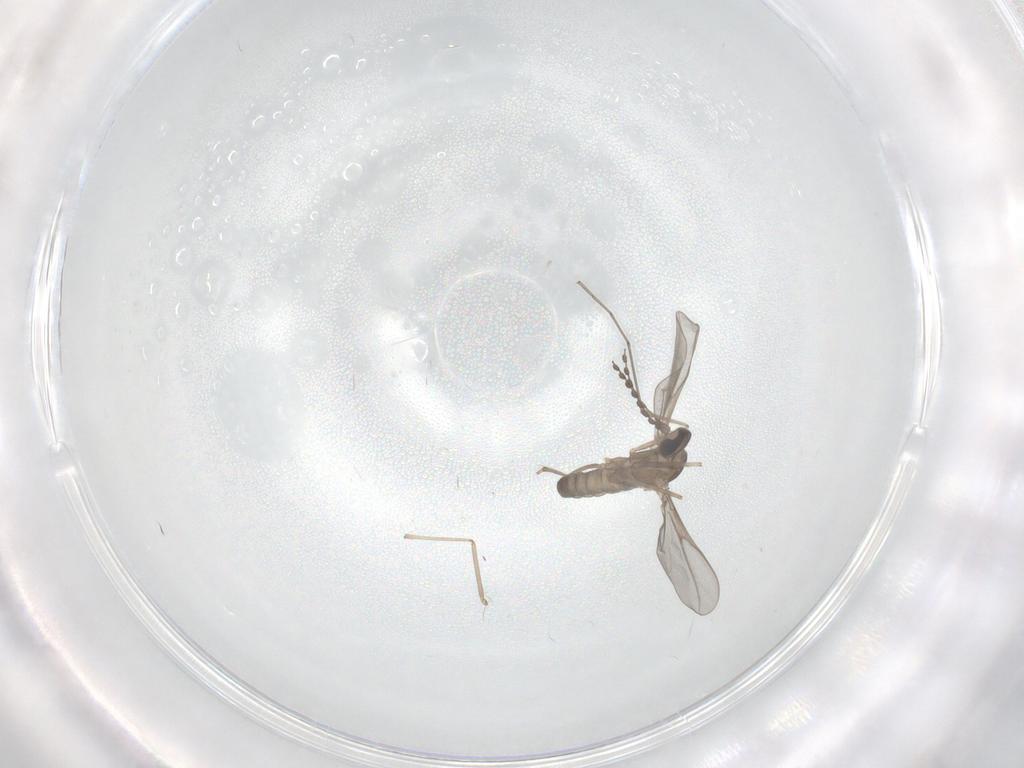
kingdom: Animalia
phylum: Arthropoda
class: Insecta
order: Diptera
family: Cecidomyiidae
